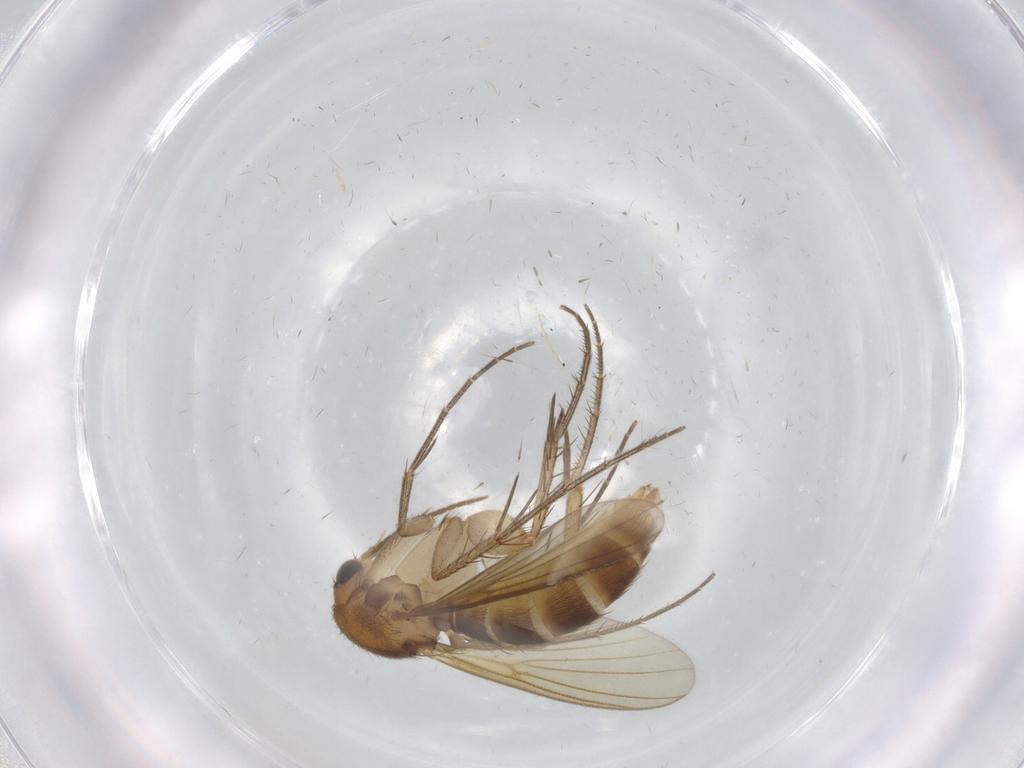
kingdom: Animalia
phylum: Arthropoda
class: Insecta
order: Diptera
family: Mycetophilidae
